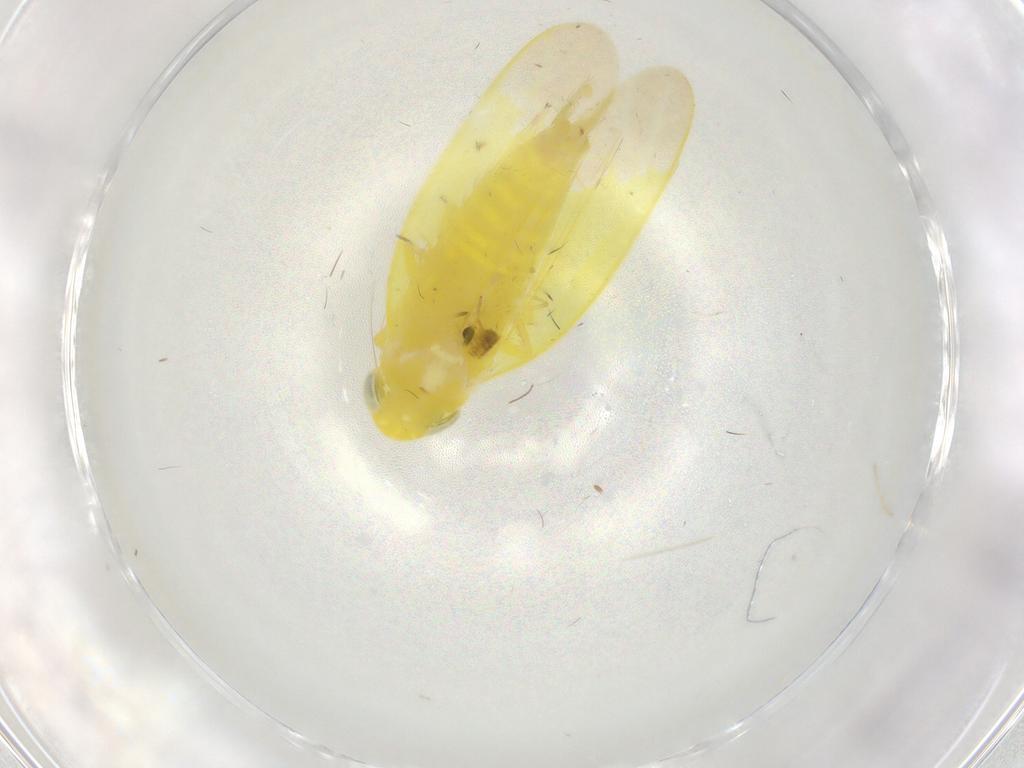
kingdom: Animalia
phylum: Arthropoda
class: Insecta
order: Hemiptera
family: Cicadellidae
